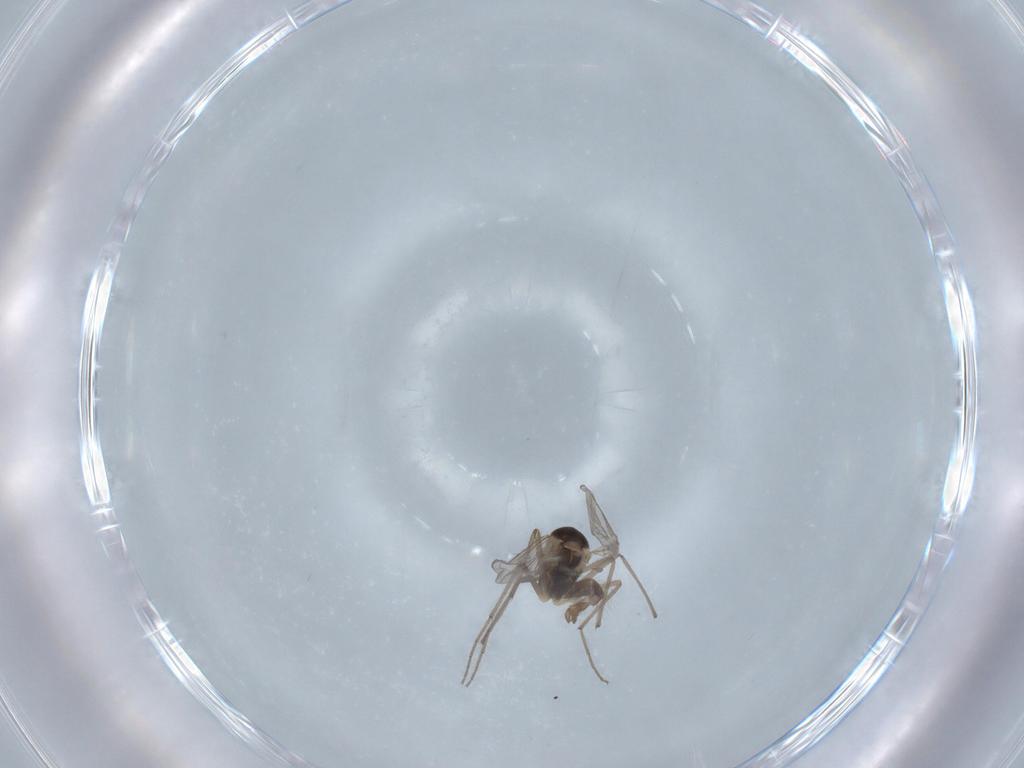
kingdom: Animalia
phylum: Arthropoda
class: Insecta
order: Diptera
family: Chironomidae
